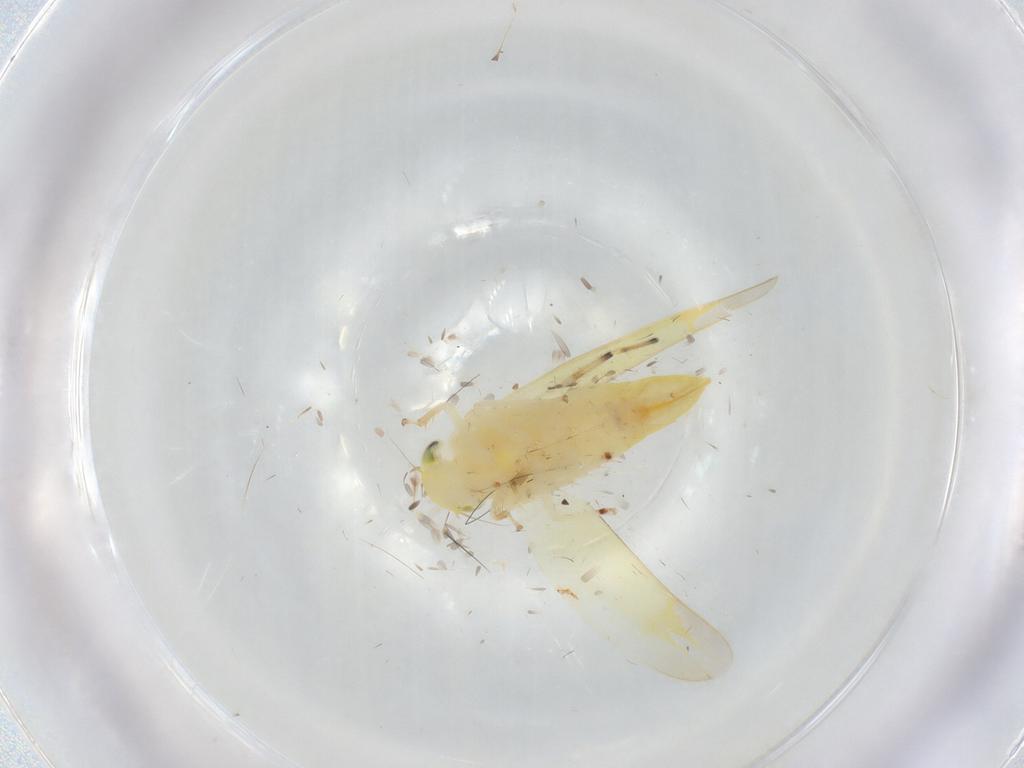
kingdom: Animalia
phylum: Arthropoda
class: Insecta
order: Hemiptera
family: Cicadellidae
